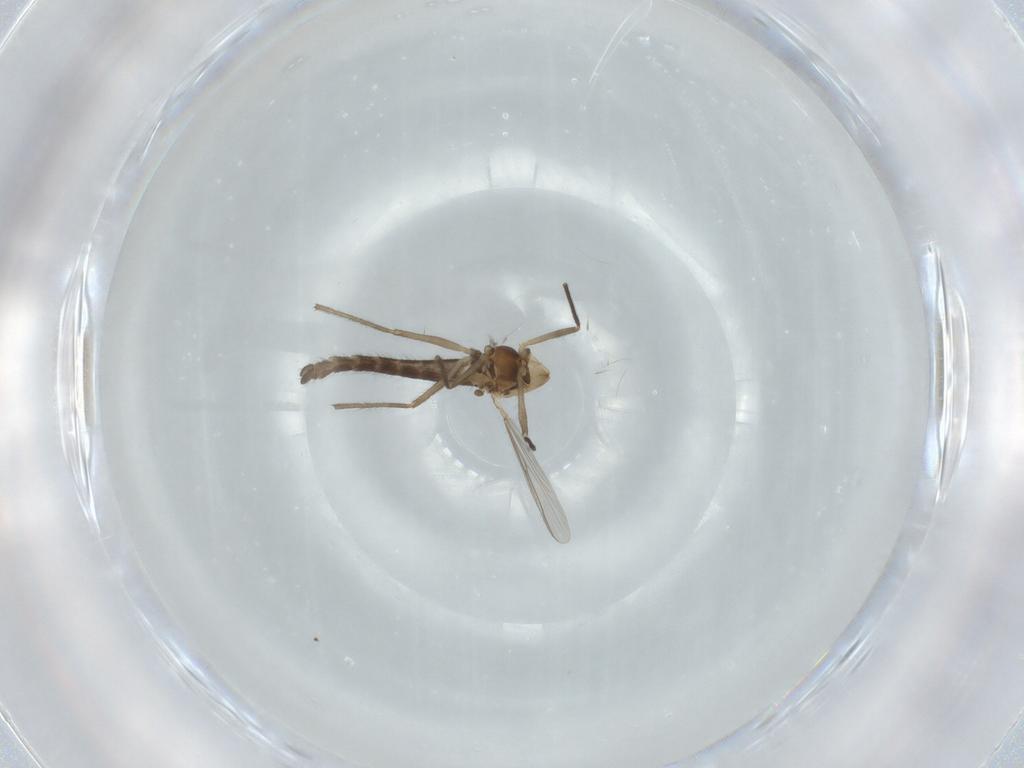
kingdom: Animalia
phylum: Arthropoda
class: Insecta
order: Diptera
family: Chironomidae
